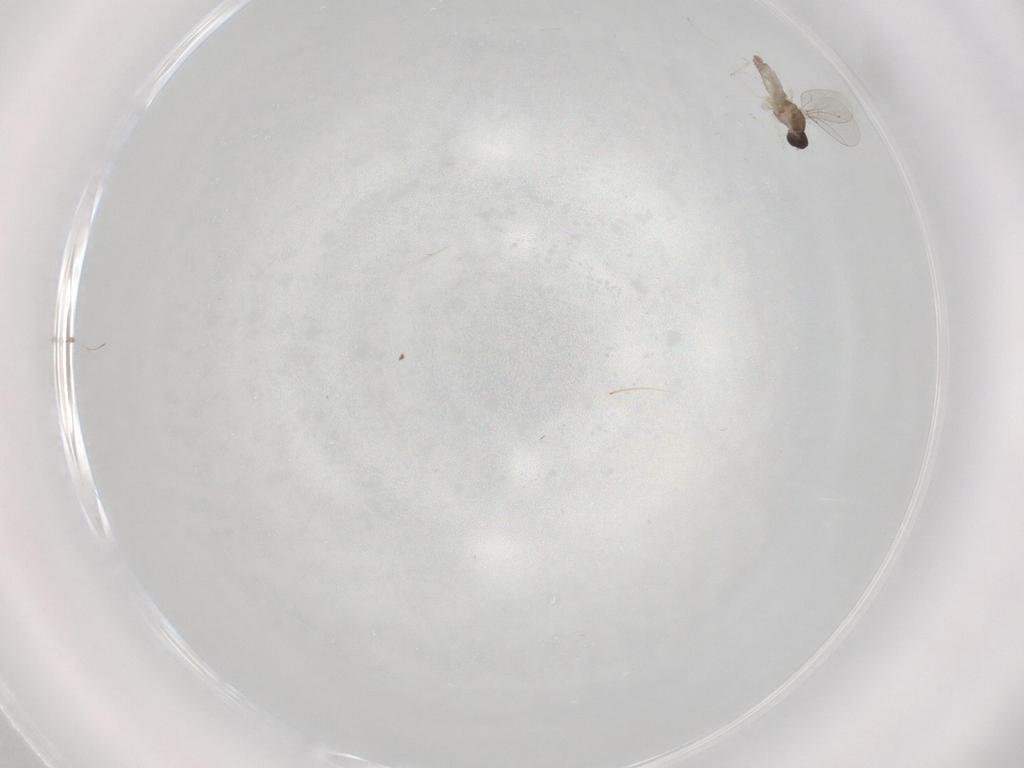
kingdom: Animalia
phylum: Arthropoda
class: Insecta
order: Diptera
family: Cecidomyiidae
